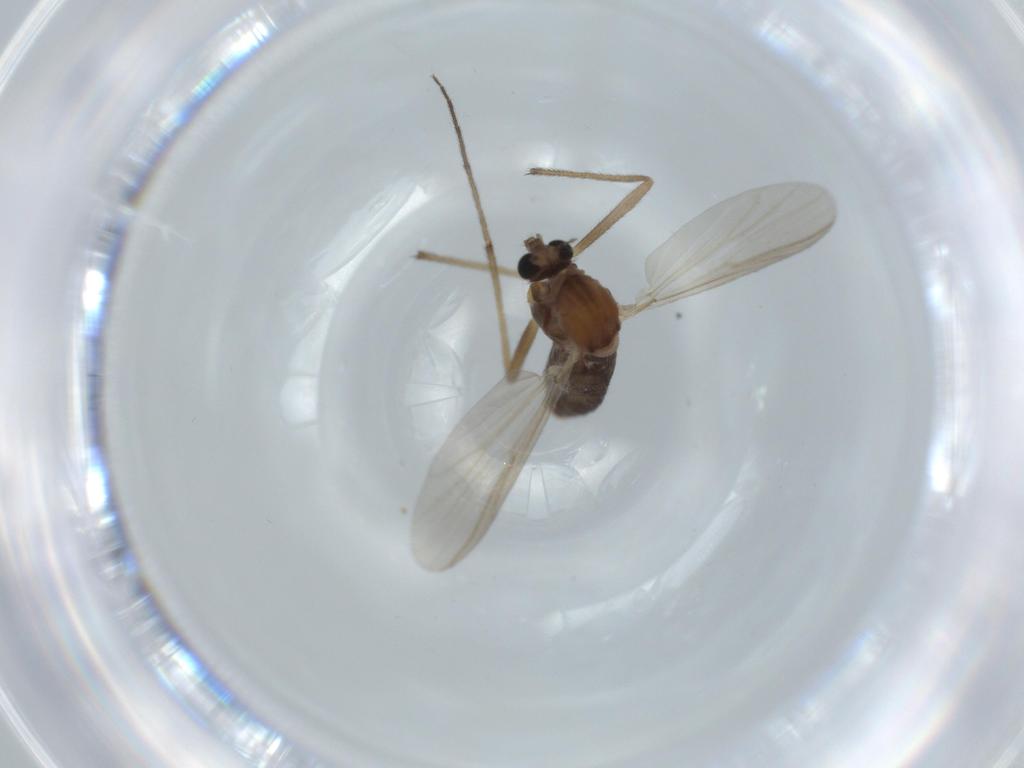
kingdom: Animalia
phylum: Arthropoda
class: Insecta
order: Diptera
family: Chironomidae
